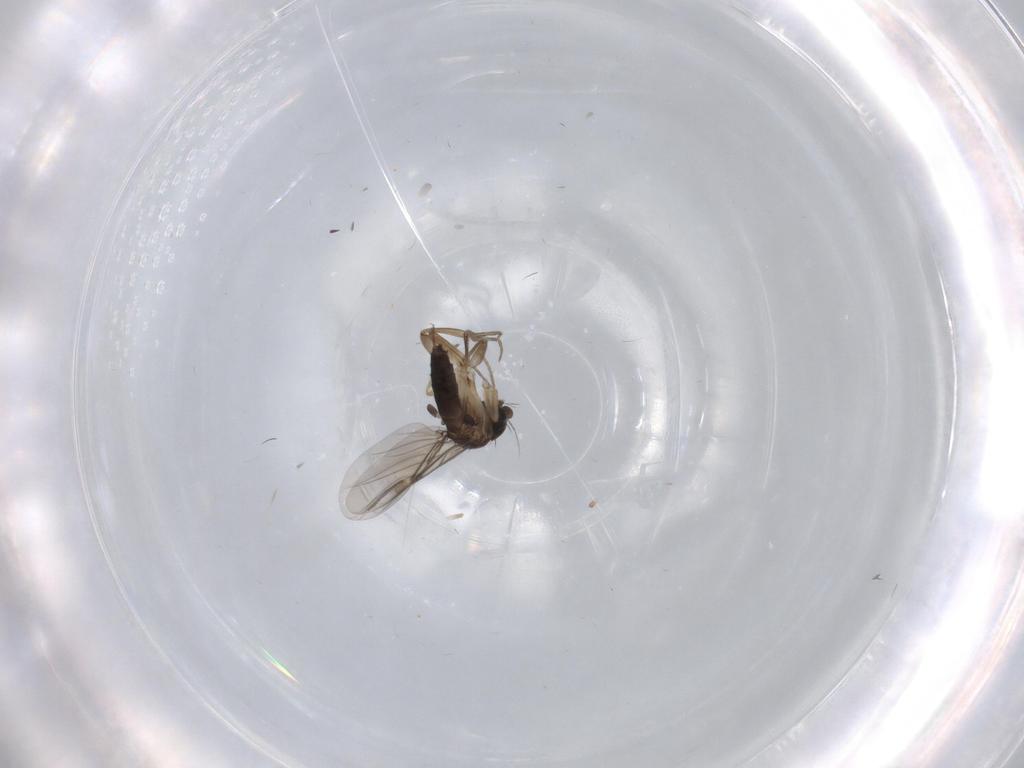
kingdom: Animalia
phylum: Arthropoda
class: Insecta
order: Diptera
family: Phoridae
